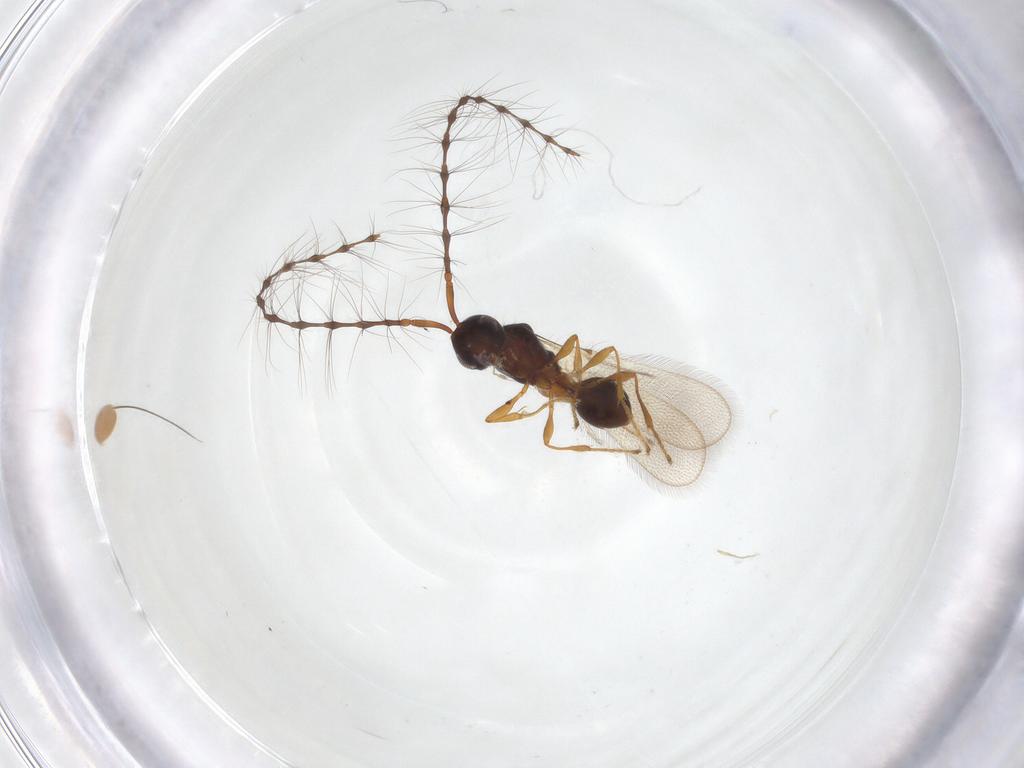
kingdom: Animalia
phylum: Arthropoda
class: Insecta
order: Hymenoptera
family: Diapriidae
